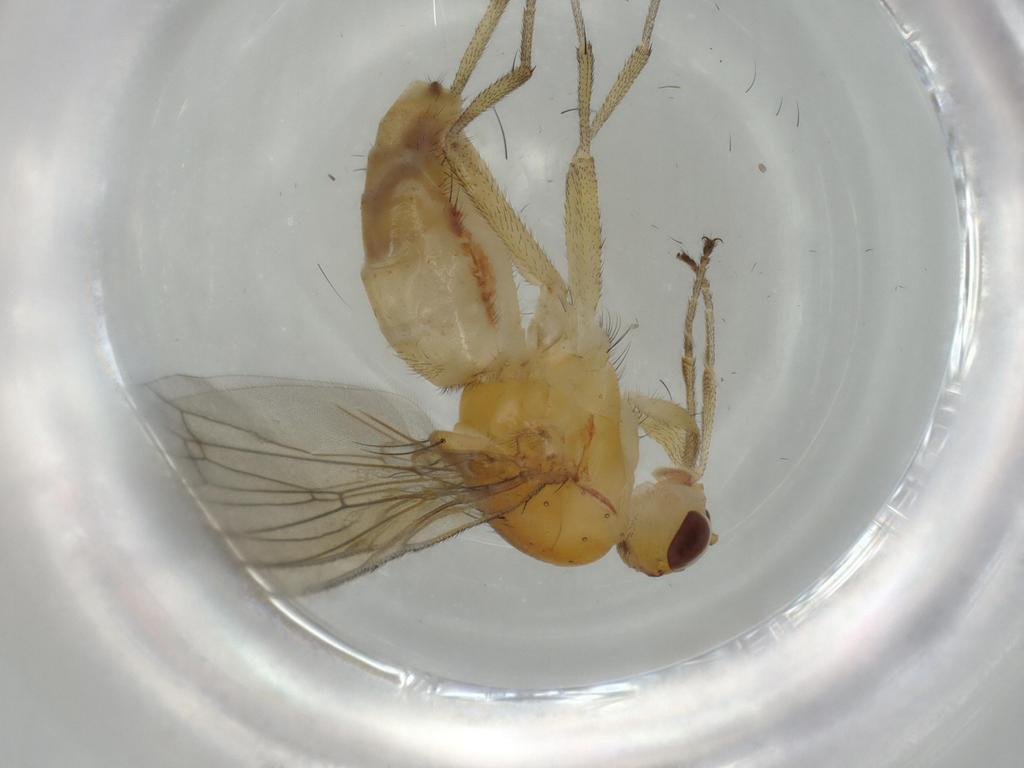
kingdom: Animalia
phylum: Arthropoda
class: Insecta
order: Diptera
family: Heleomyzidae
